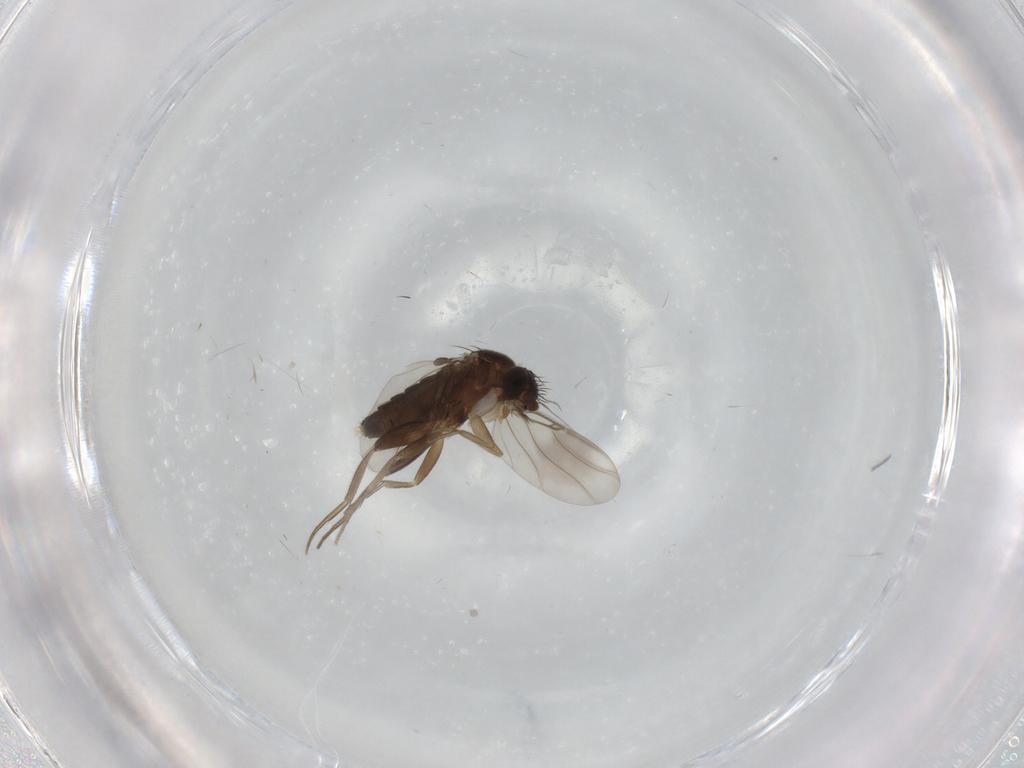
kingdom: Animalia
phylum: Arthropoda
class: Insecta
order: Diptera
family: Phoridae
